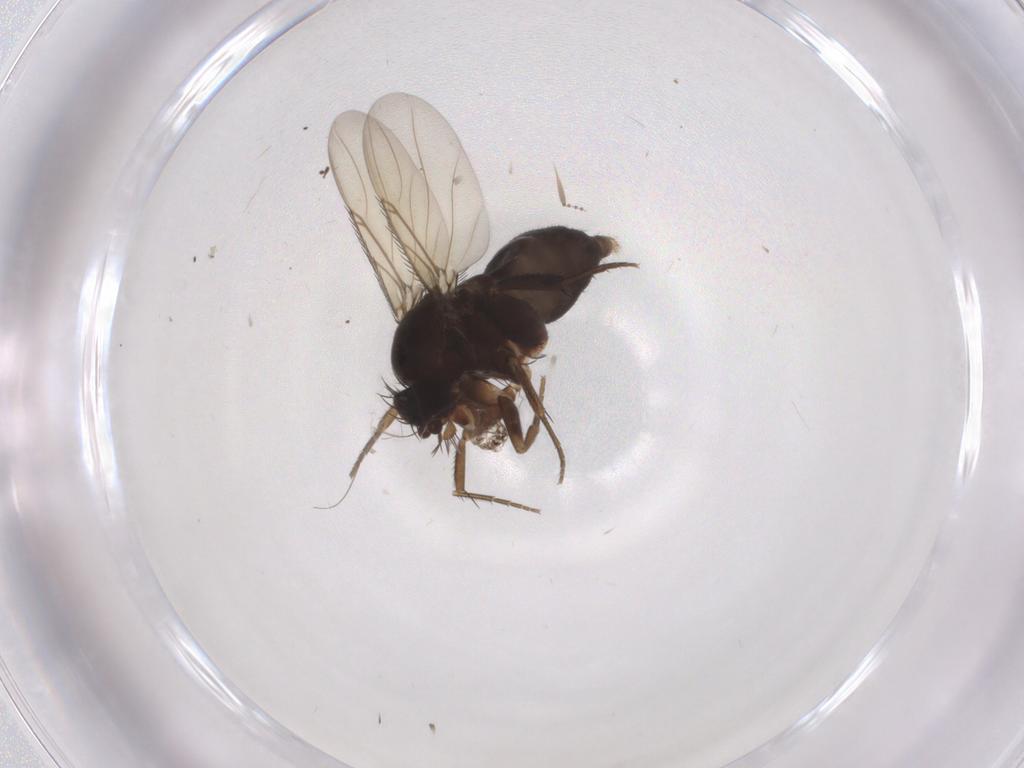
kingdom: Animalia
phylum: Arthropoda
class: Insecta
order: Diptera
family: Phoridae
